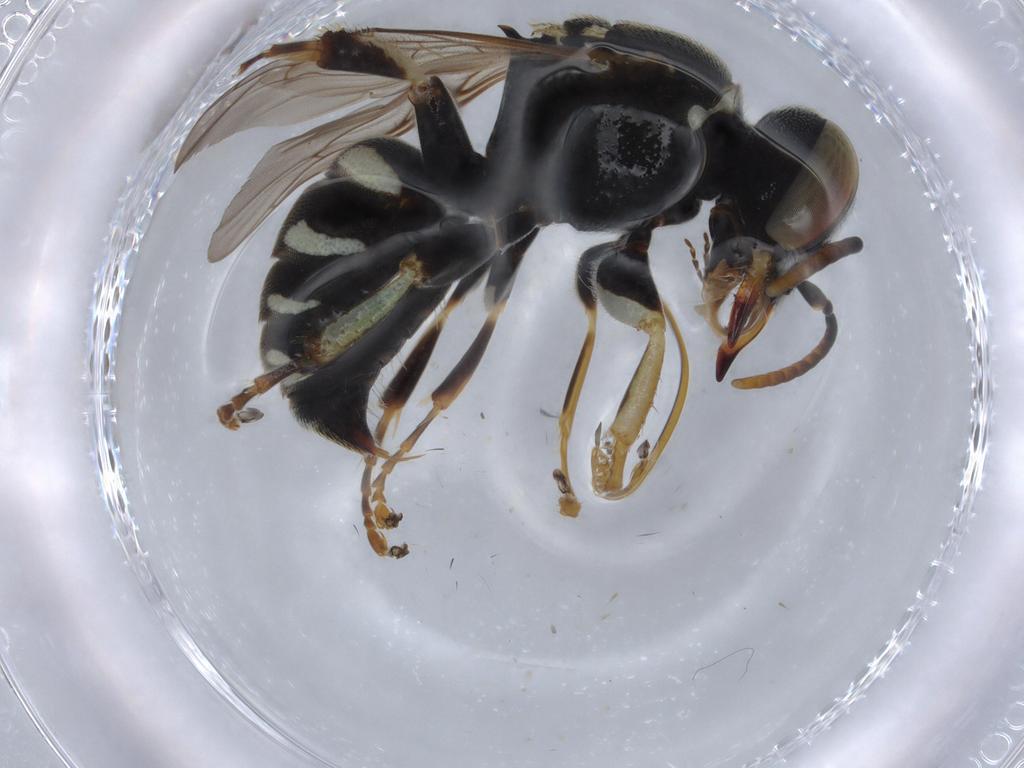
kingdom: Animalia
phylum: Arthropoda
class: Insecta
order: Hymenoptera
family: Crabronidae
